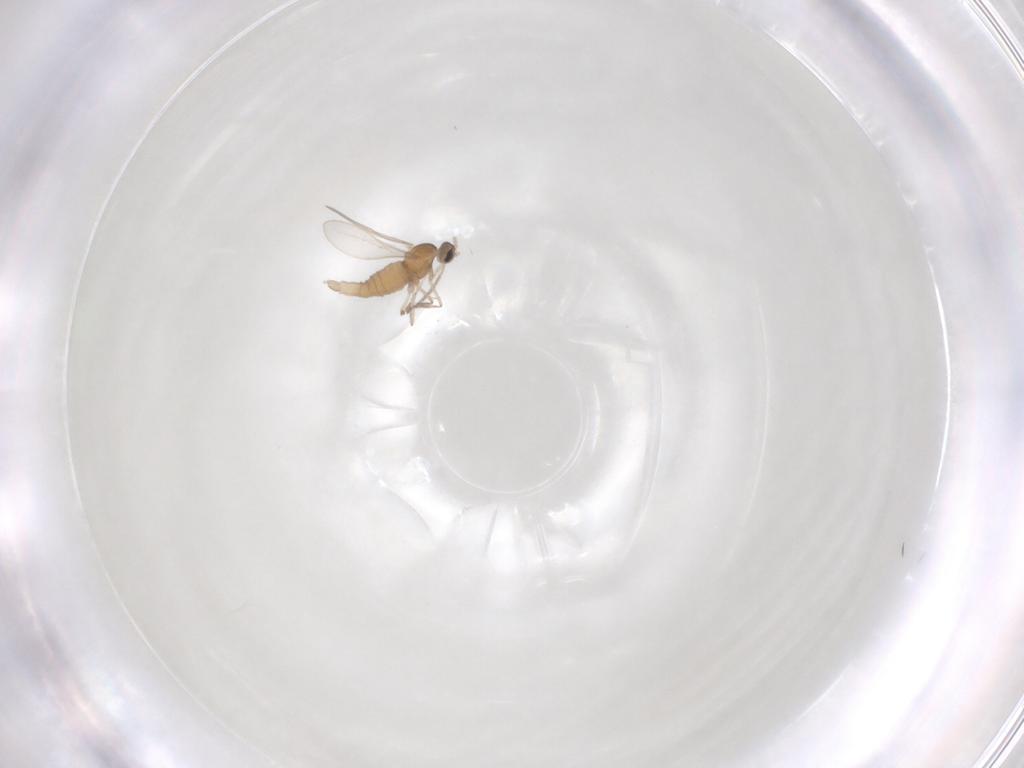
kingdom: Animalia
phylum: Arthropoda
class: Insecta
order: Diptera
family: Cecidomyiidae
